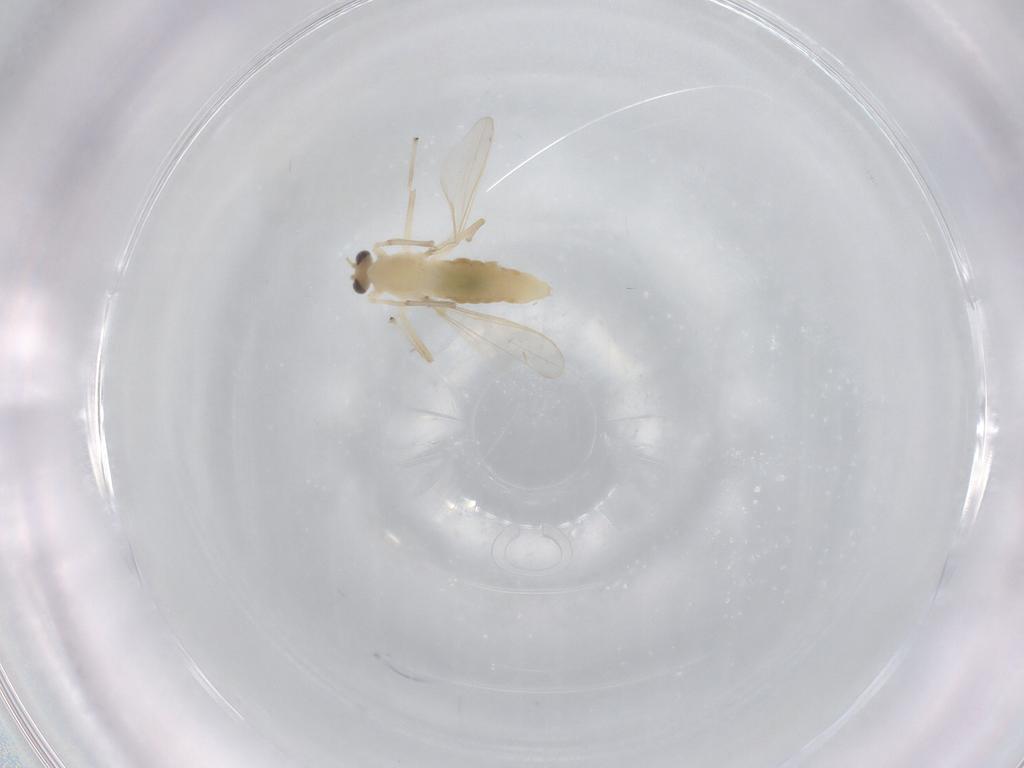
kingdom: Animalia
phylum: Arthropoda
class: Insecta
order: Diptera
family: Chironomidae
